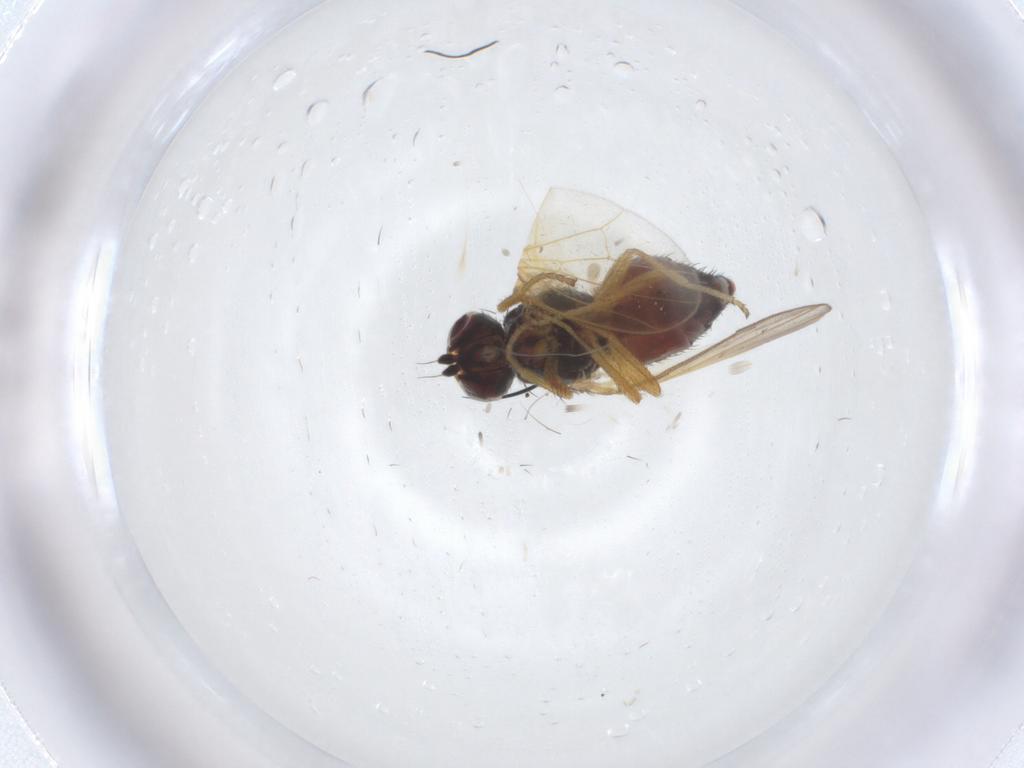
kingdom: Animalia
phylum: Arthropoda
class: Insecta
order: Diptera
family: Heleomyzidae
